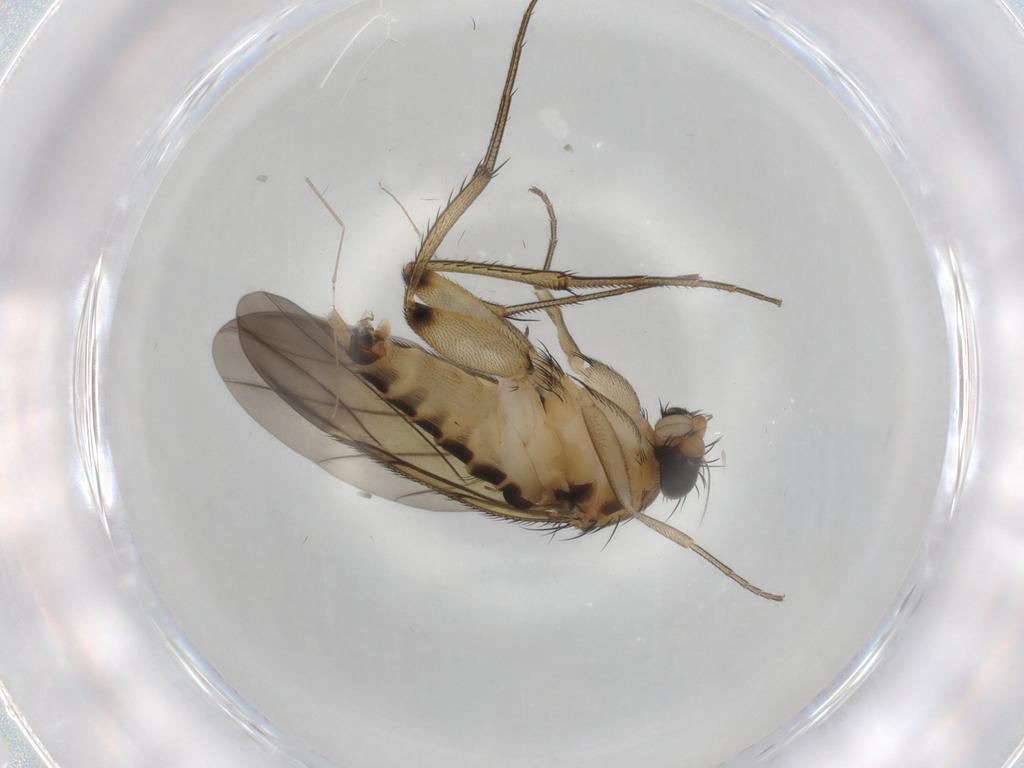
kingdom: Animalia
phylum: Arthropoda
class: Insecta
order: Diptera
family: Chironomidae
